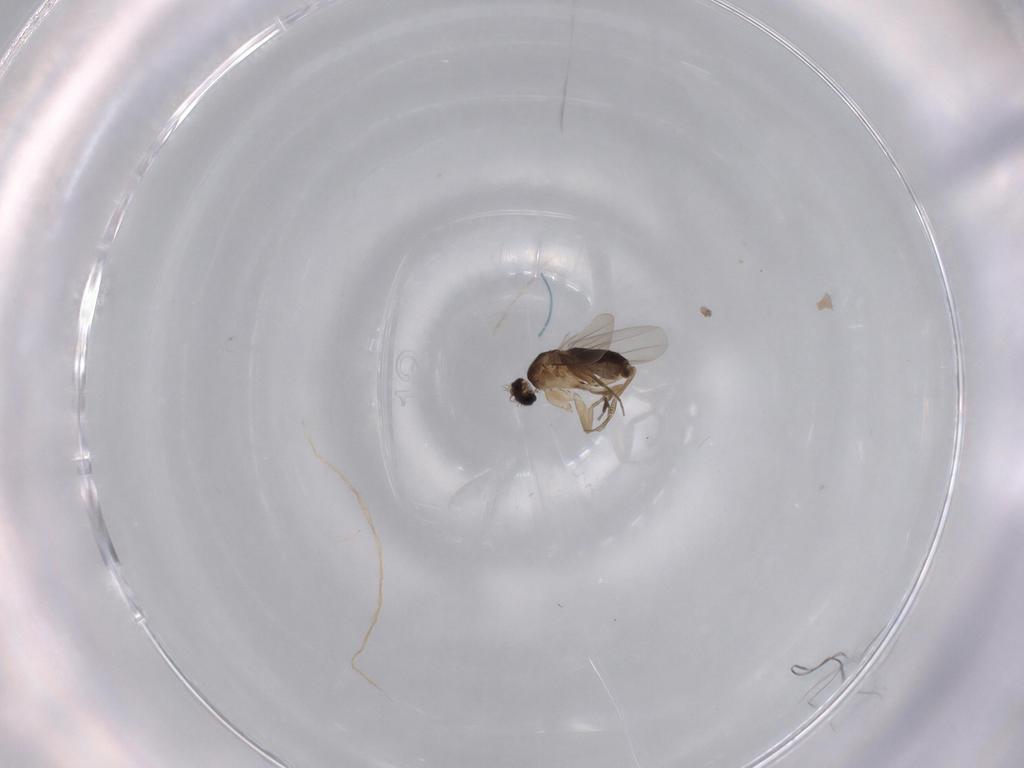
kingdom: Animalia
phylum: Arthropoda
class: Insecta
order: Diptera
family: Phoridae
